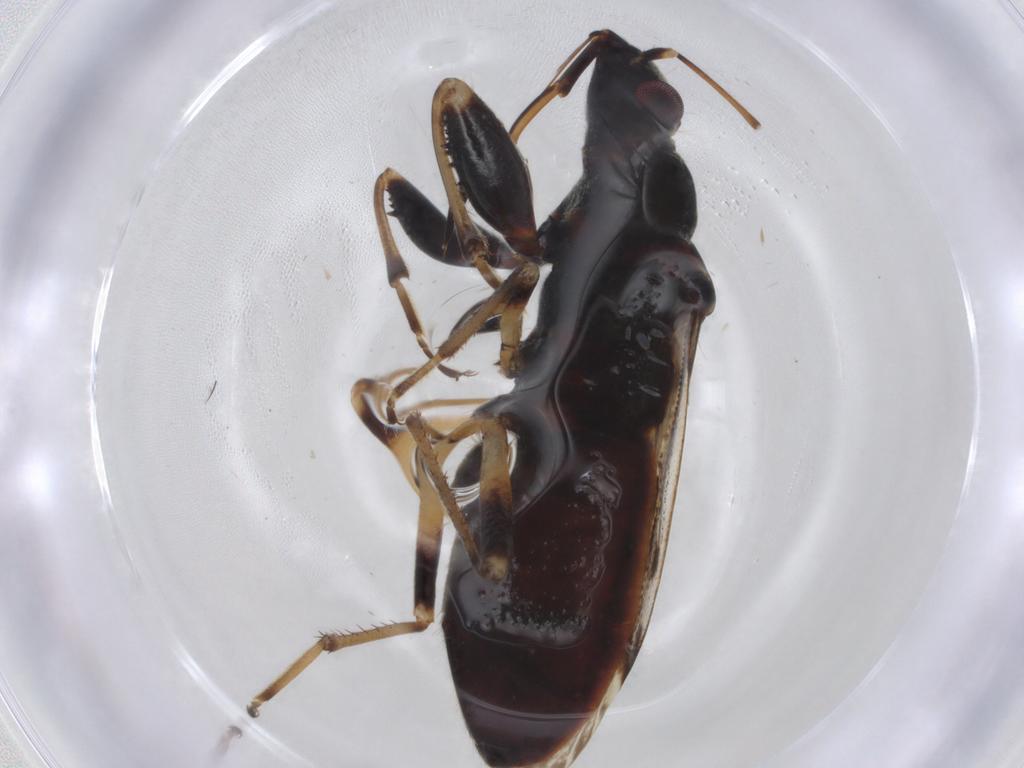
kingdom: Animalia
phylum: Arthropoda
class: Insecta
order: Hemiptera
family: Rhyparochromidae
